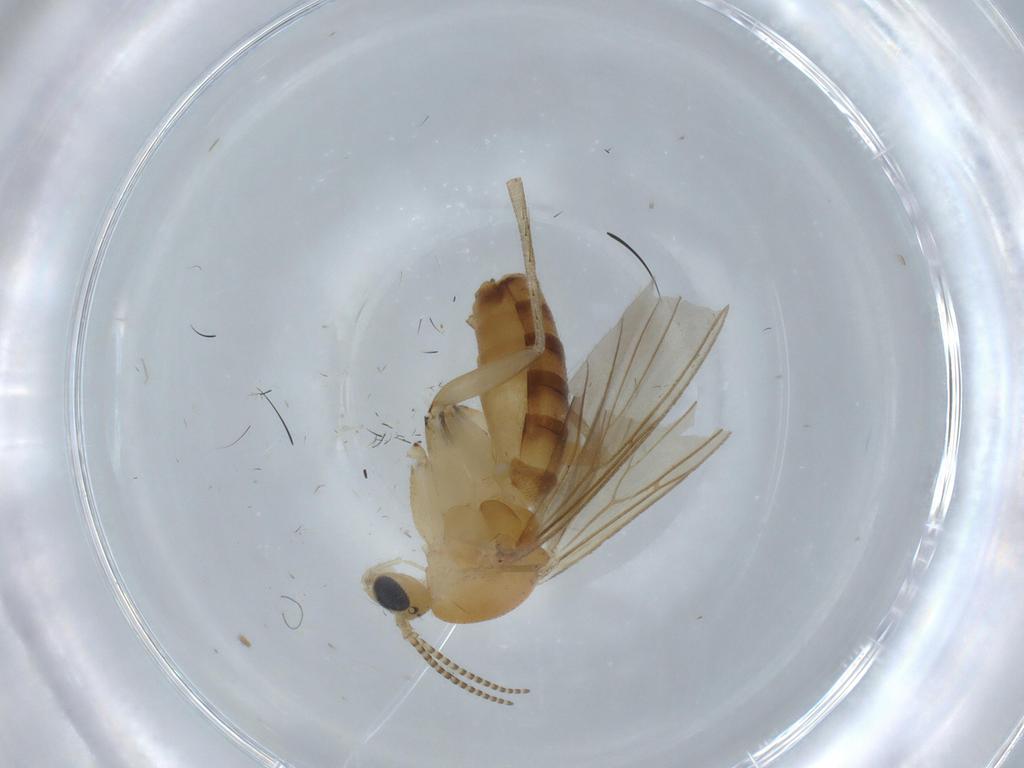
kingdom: Animalia
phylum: Arthropoda
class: Insecta
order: Diptera
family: Mycetophilidae
